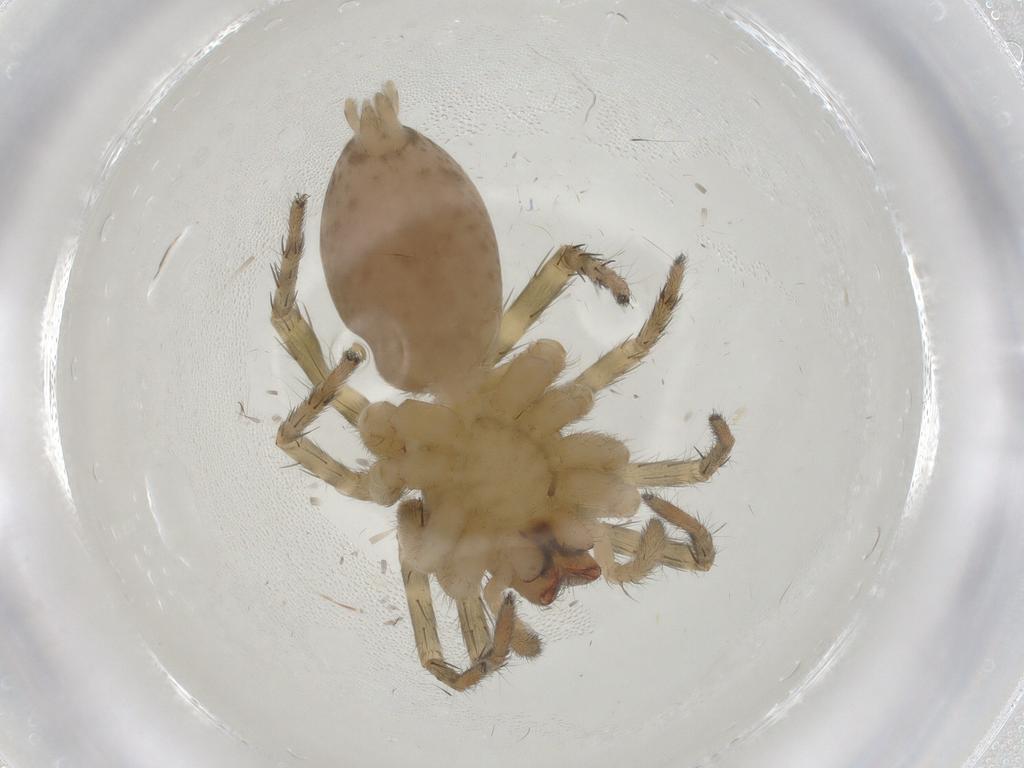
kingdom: Animalia
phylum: Arthropoda
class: Arachnida
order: Araneae
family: Anyphaenidae
